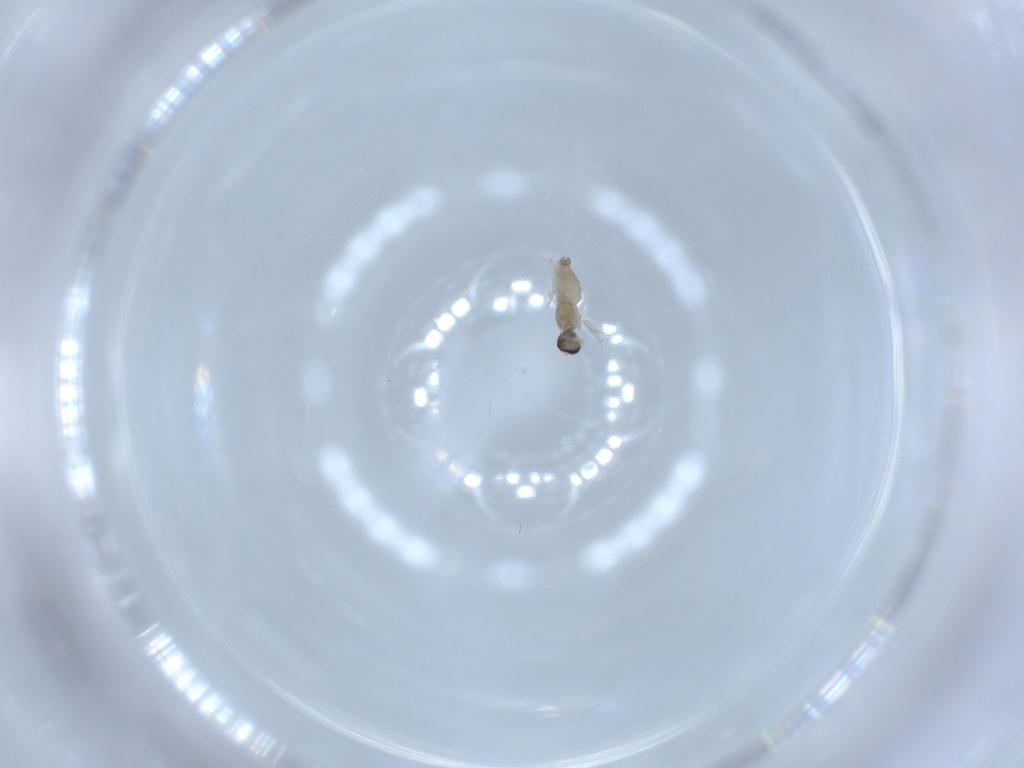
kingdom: Animalia
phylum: Arthropoda
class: Insecta
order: Diptera
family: Cecidomyiidae
